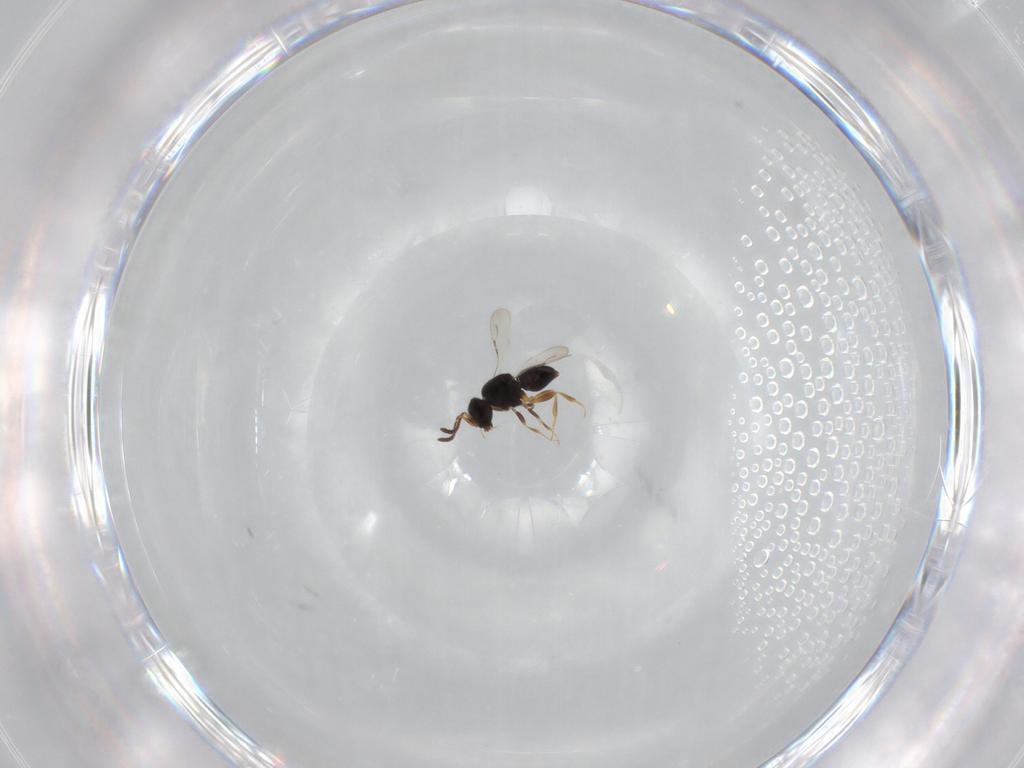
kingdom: Animalia
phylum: Arthropoda
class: Insecta
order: Hymenoptera
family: Ceraphronidae
